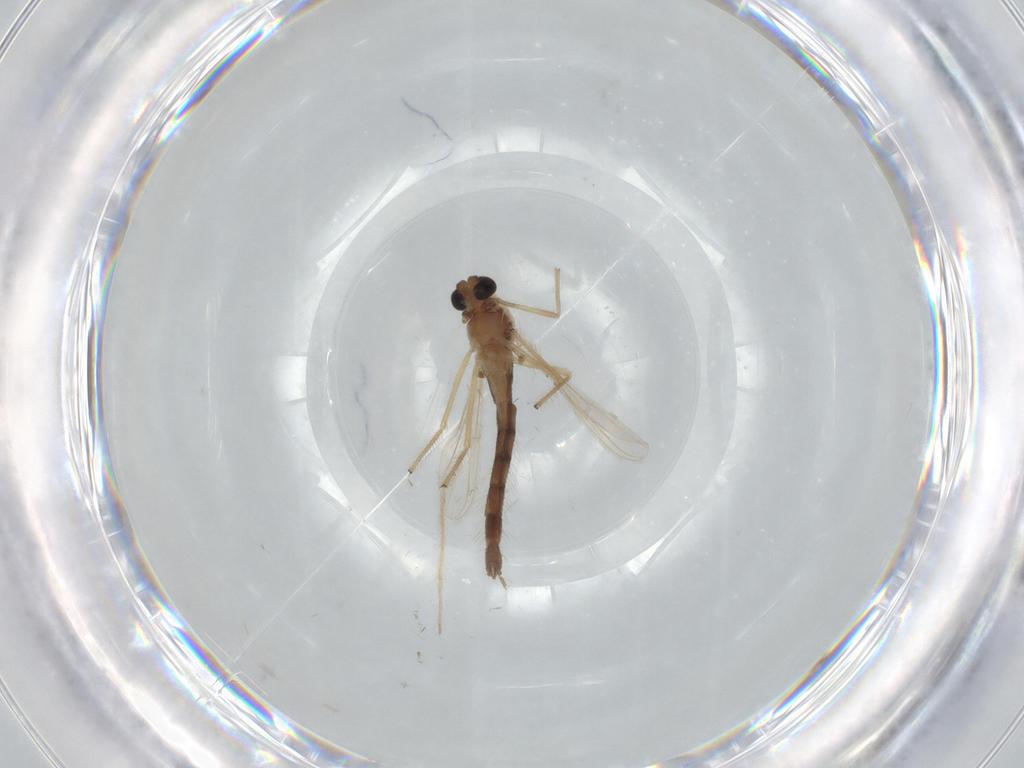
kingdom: Animalia
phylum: Arthropoda
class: Insecta
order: Diptera
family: Chironomidae
